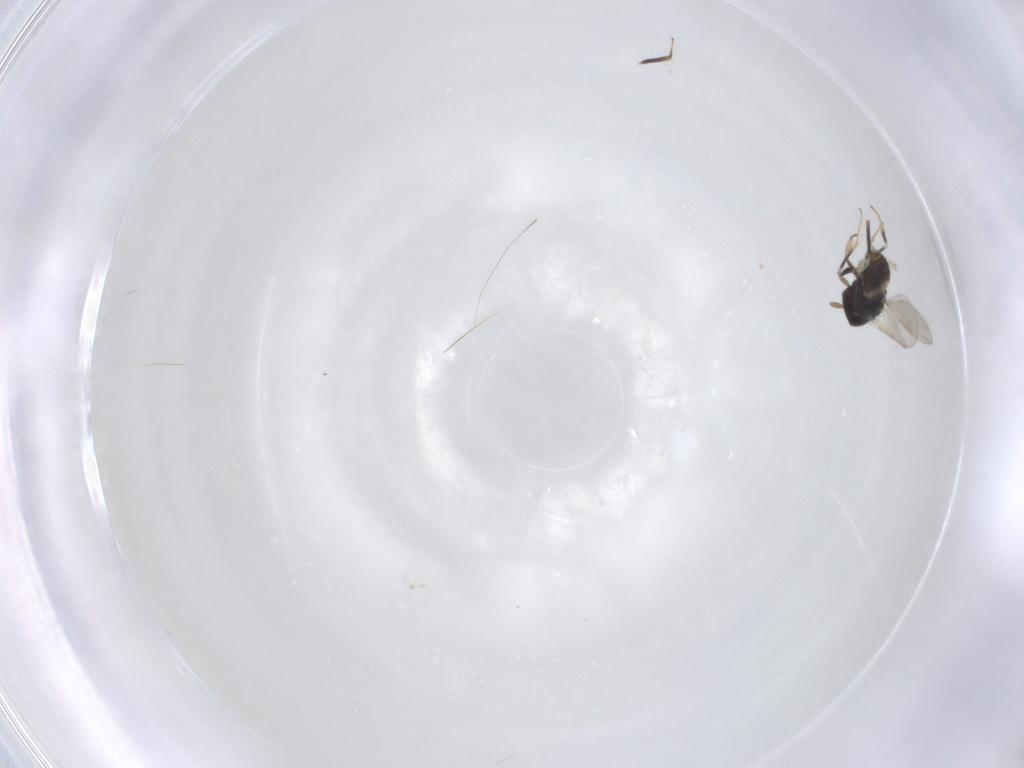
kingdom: Animalia
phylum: Arthropoda
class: Insecta
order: Hymenoptera
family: Aphelinidae
